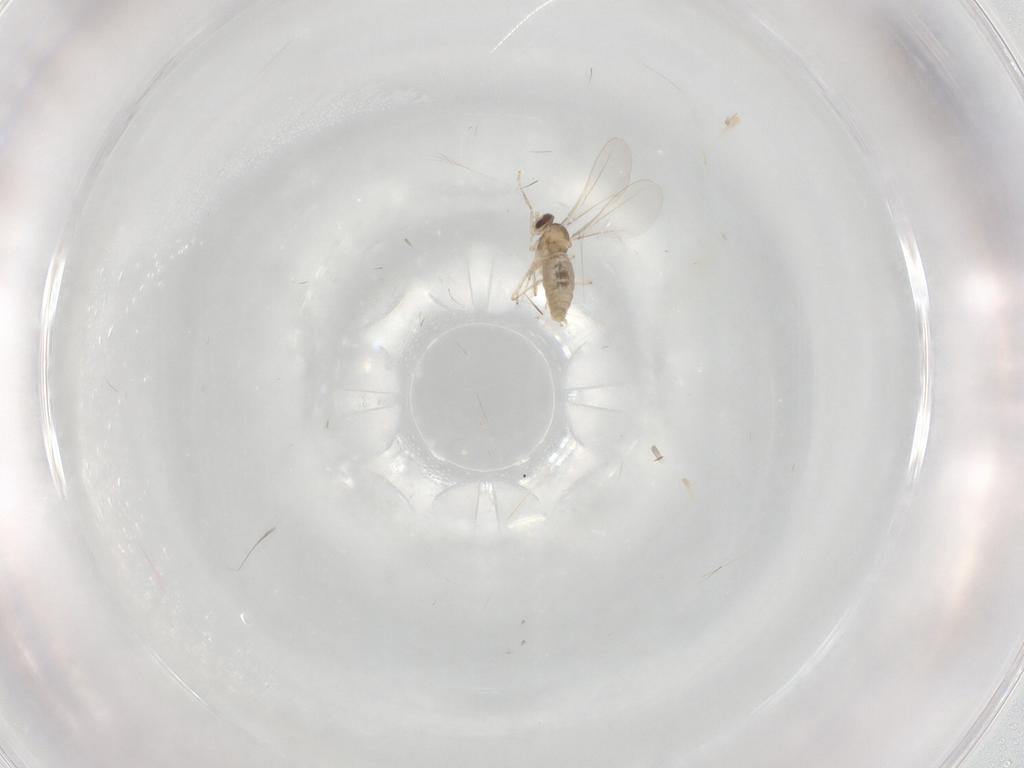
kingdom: Animalia
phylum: Arthropoda
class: Insecta
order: Diptera
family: Cecidomyiidae
